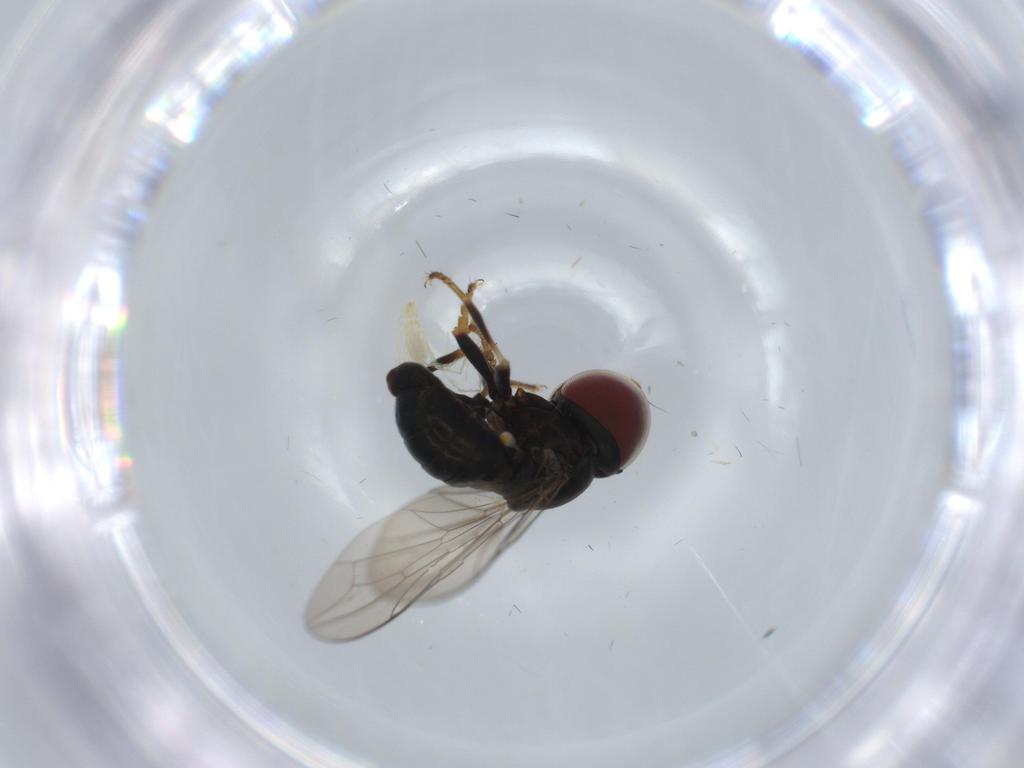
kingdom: Animalia
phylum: Arthropoda
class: Insecta
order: Diptera
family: Pipunculidae
